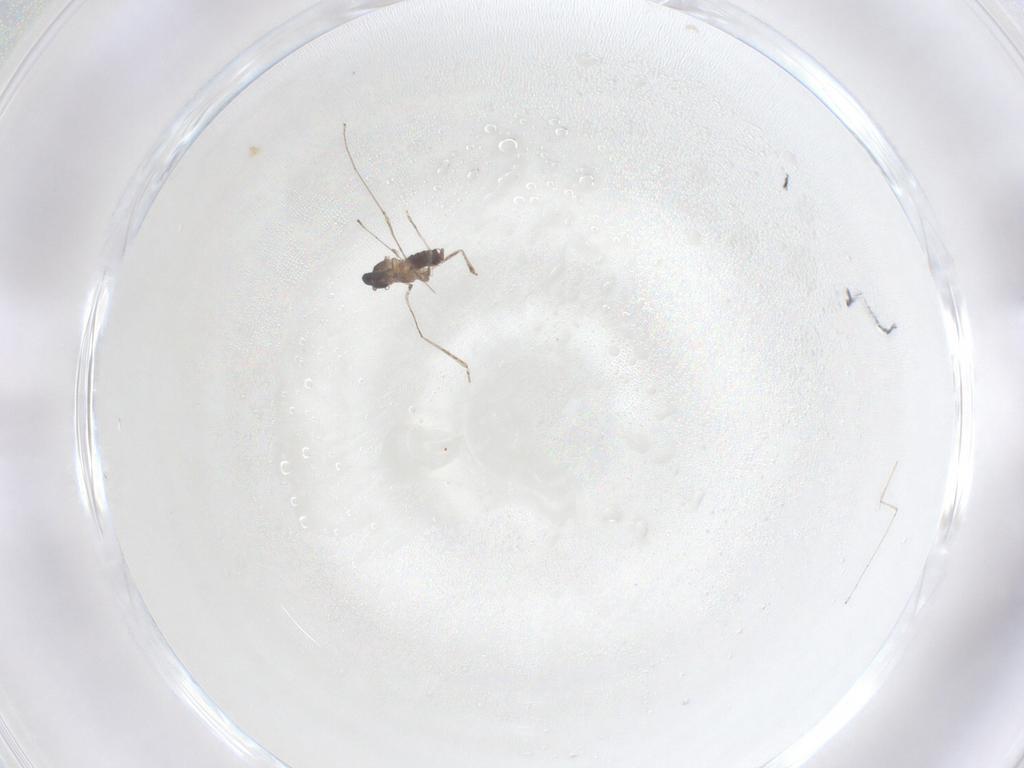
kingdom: Animalia
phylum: Arthropoda
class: Insecta
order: Diptera
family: Cecidomyiidae
